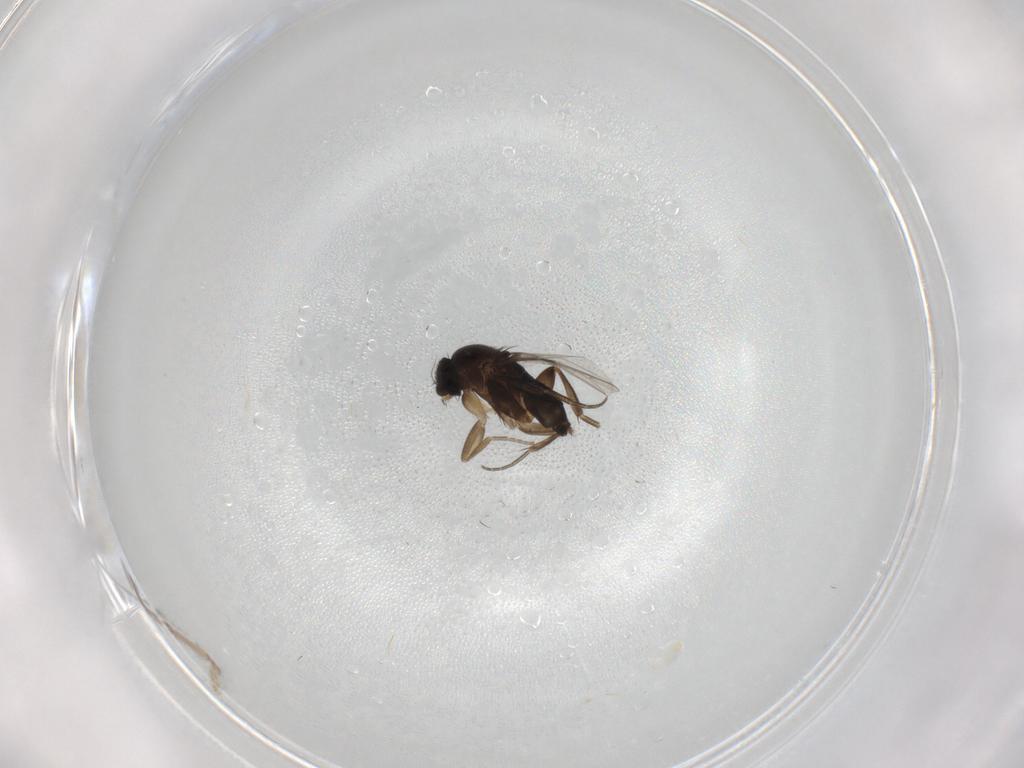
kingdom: Animalia
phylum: Arthropoda
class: Insecta
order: Diptera
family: Phoridae
